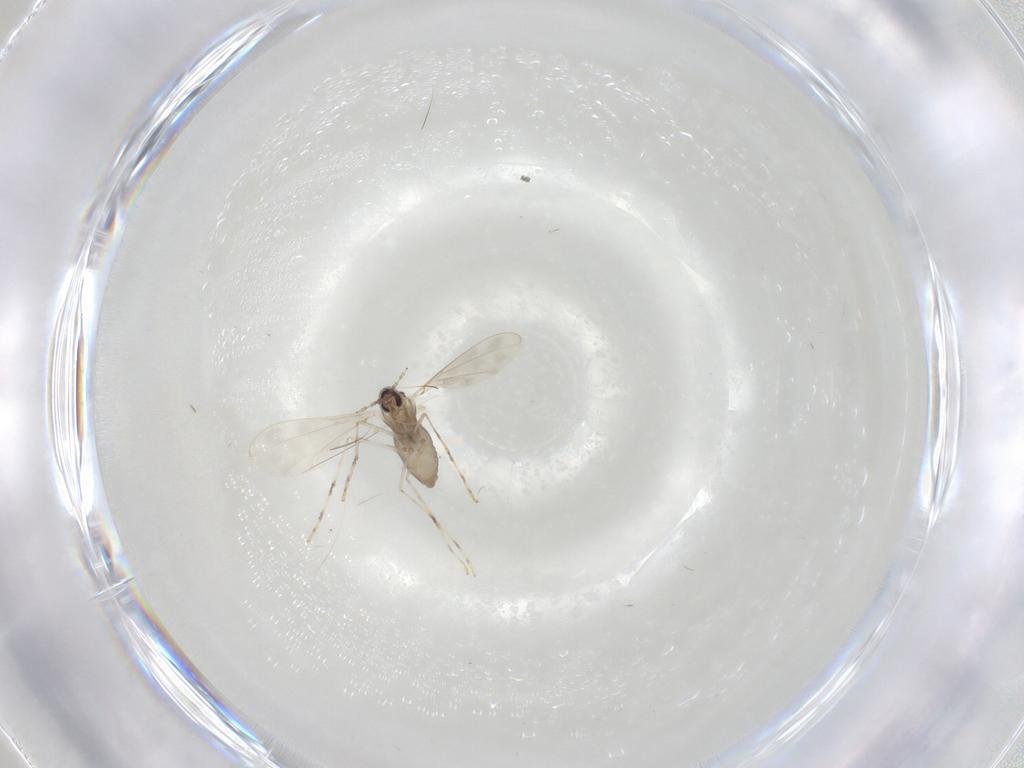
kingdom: Animalia
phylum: Arthropoda
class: Insecta
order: Diptera
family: Cecidomyiidae
